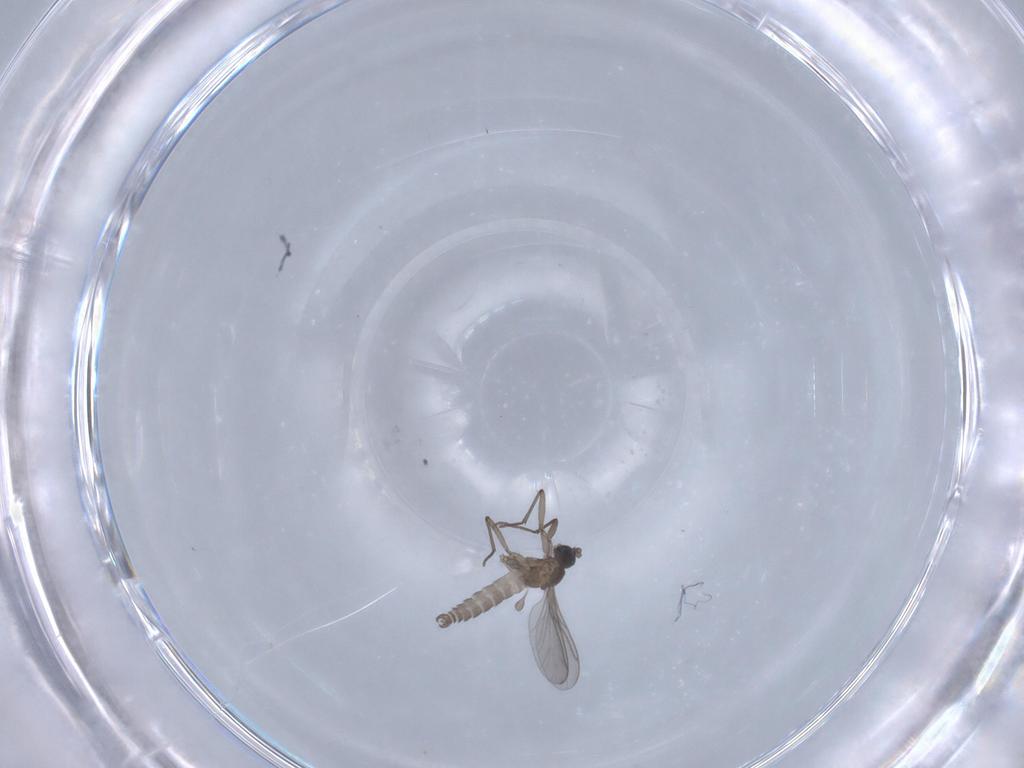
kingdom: Animalia
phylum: Arthropoda
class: Insecta
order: Diptera
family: Sciaridae
